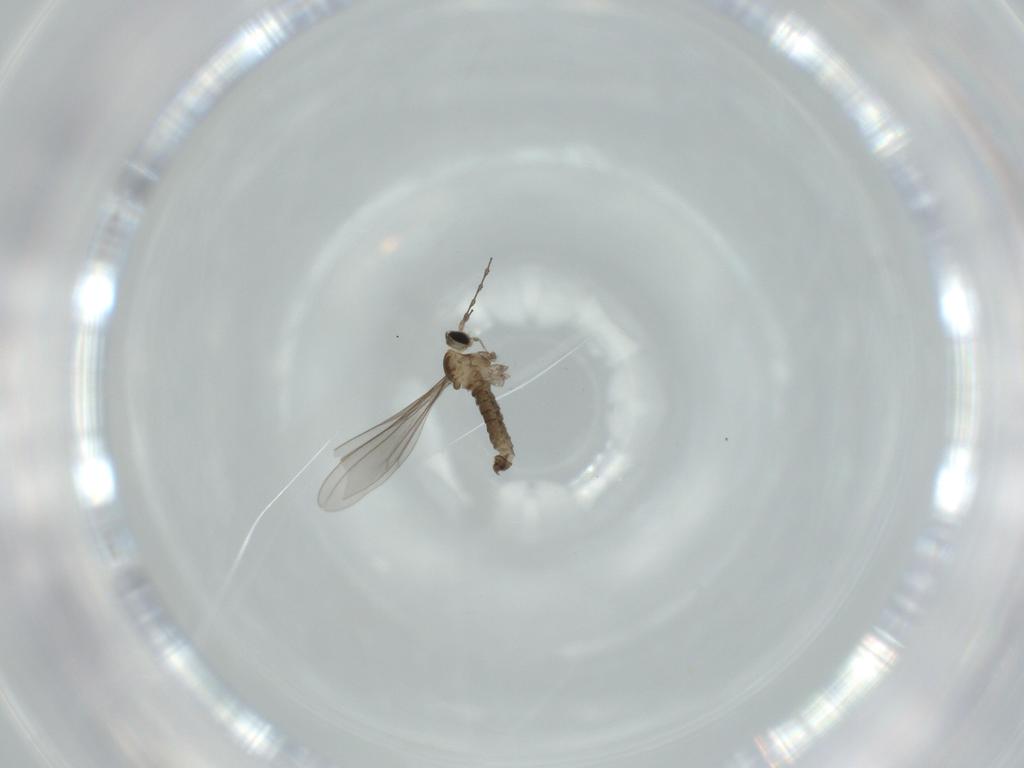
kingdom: Animalia
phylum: Arthropoda
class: Insecta
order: Diptera
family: Cecidomyiidae
